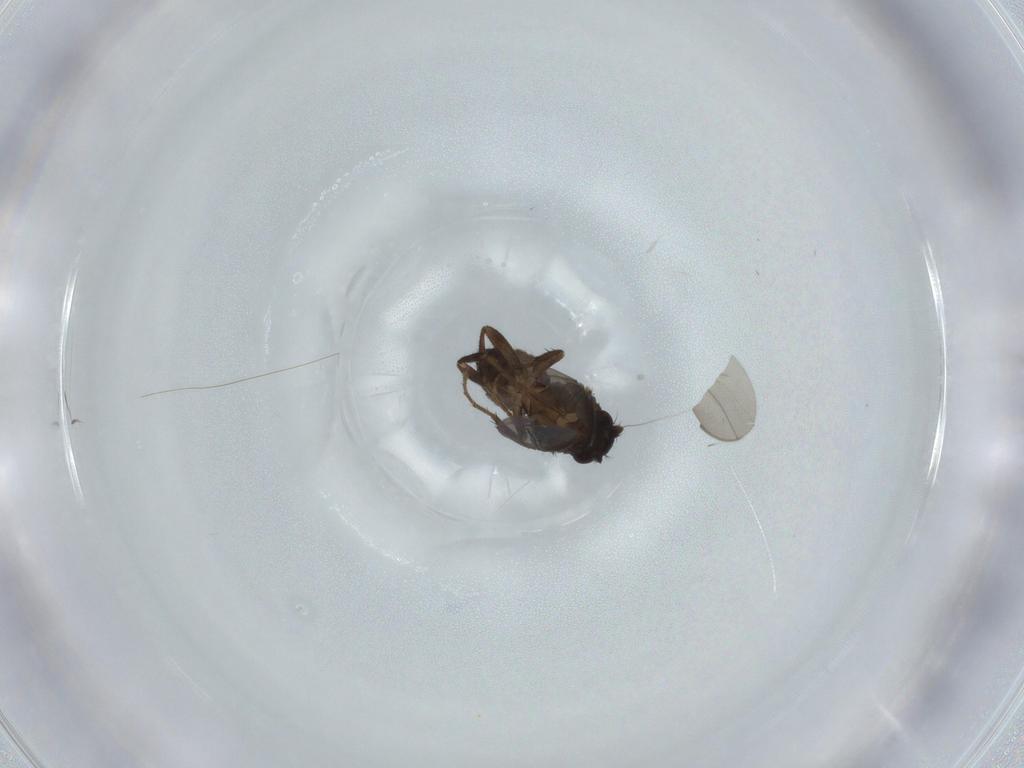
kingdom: Animalia
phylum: Arthropoda
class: Insecta
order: Diptera
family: Sphaeroceridae
